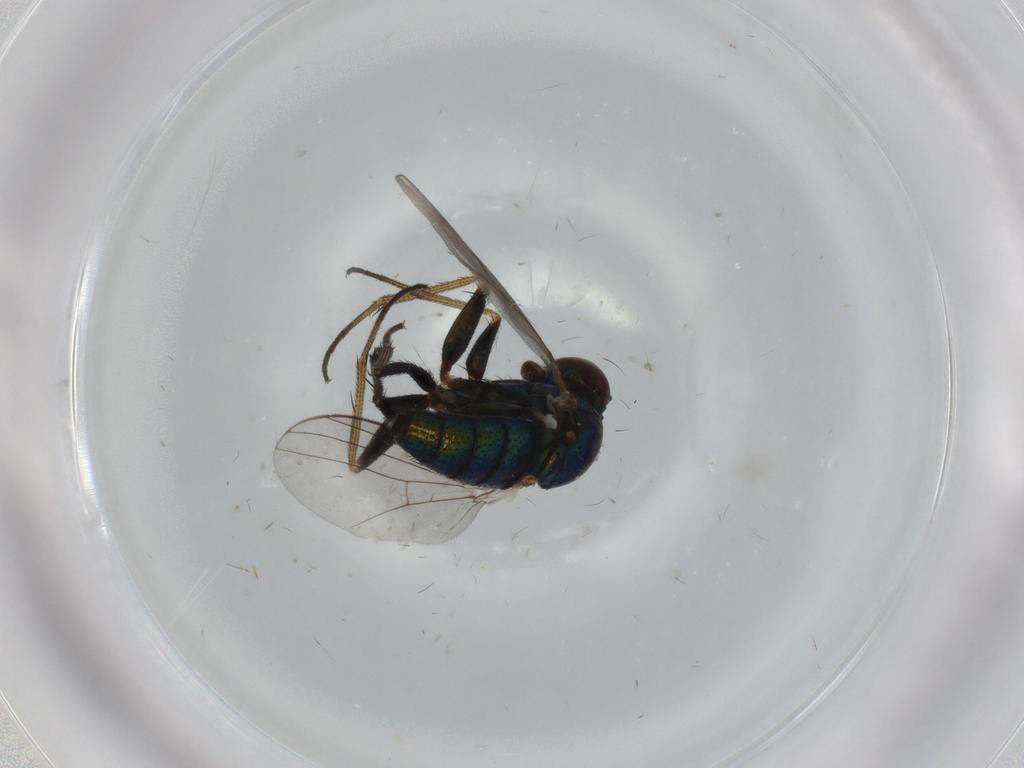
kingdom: Animalia
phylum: Arthropoda
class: Insecta
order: Diptera
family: Dolichopodidae
